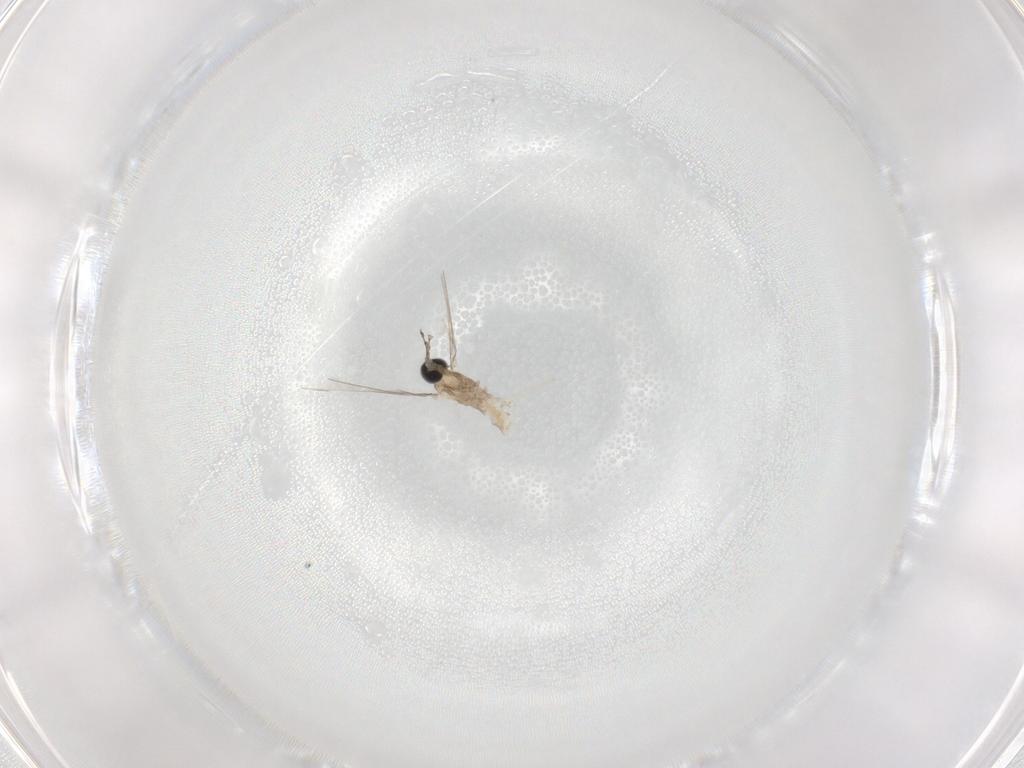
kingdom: Animalia
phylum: Arthropoda
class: Insecta
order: Diptera
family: Cecidomyiidae
